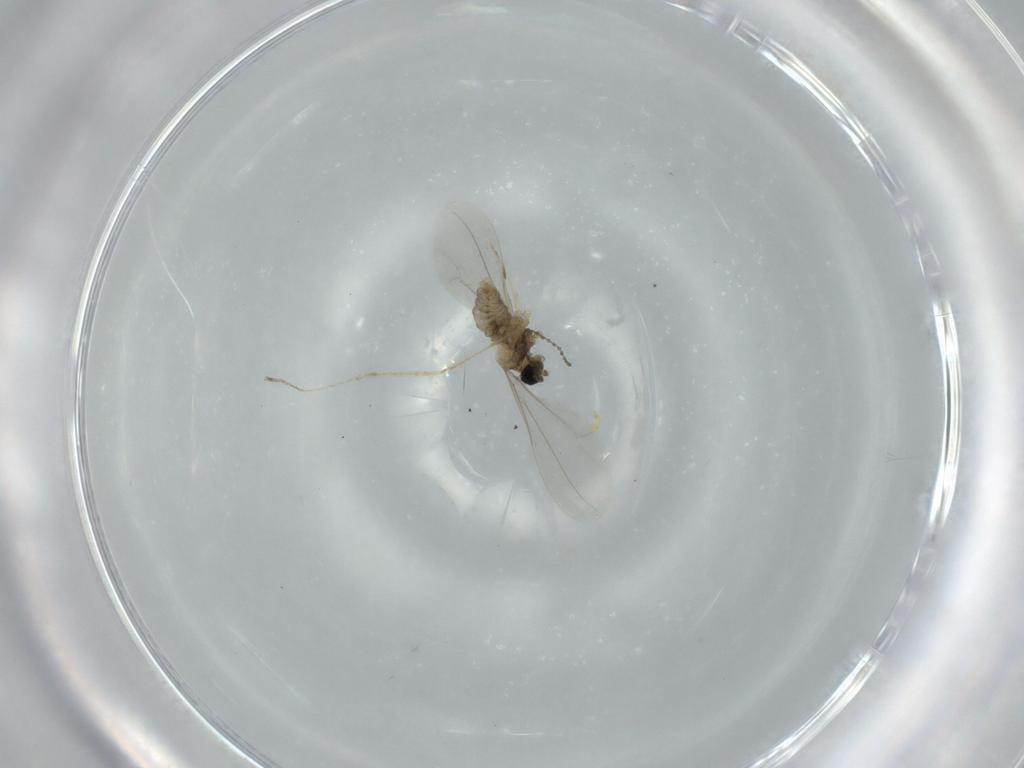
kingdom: Animalia
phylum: Arthropoda
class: Insecta
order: Diptera
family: Cecidomyiidae
